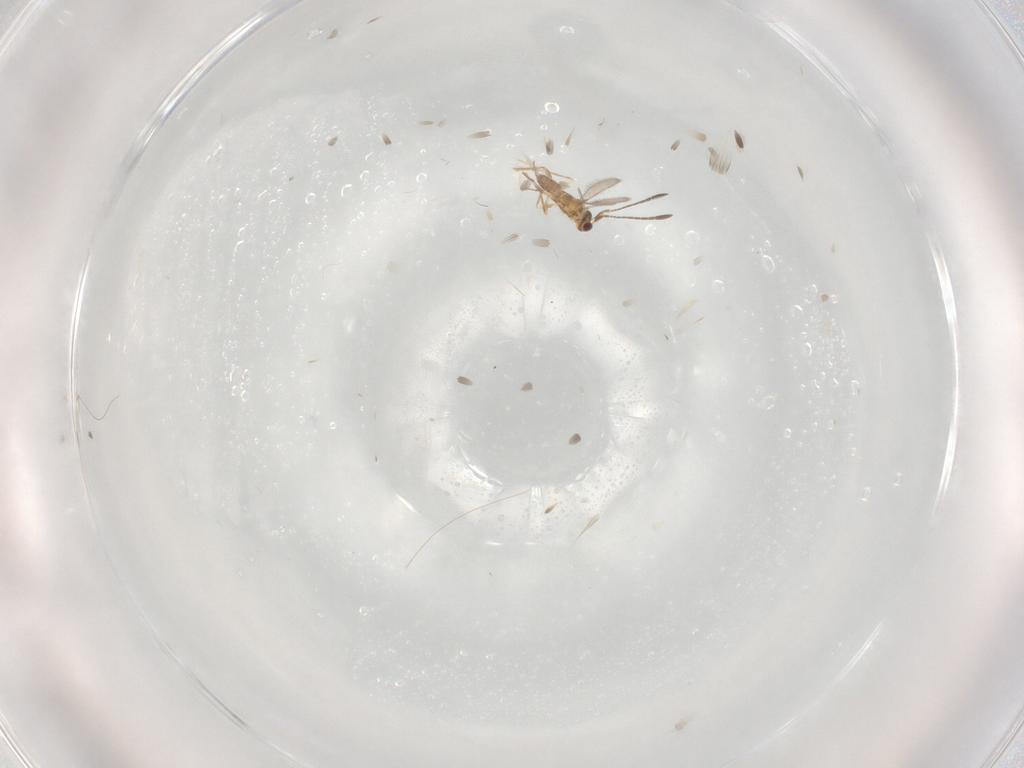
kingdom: Animalia
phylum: Arthropoda
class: Insecta
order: Hymenoptera
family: Mymaridae
